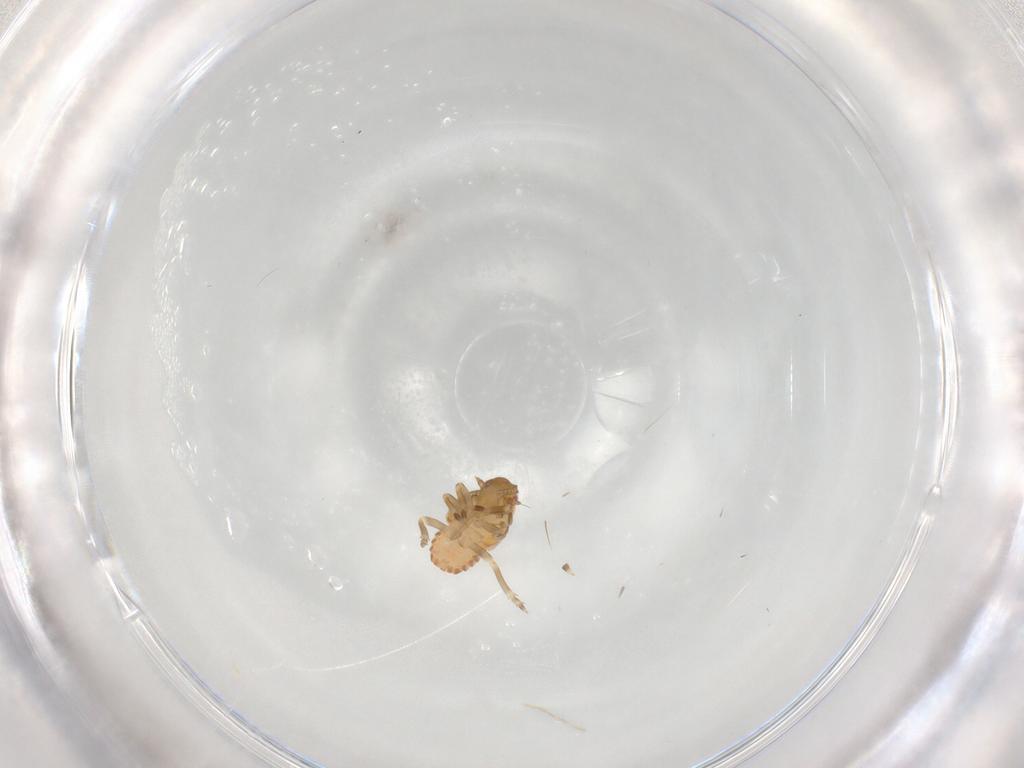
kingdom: Animalia
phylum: Arthropoda
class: Insecta
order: Hemiptera
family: Flatidae
